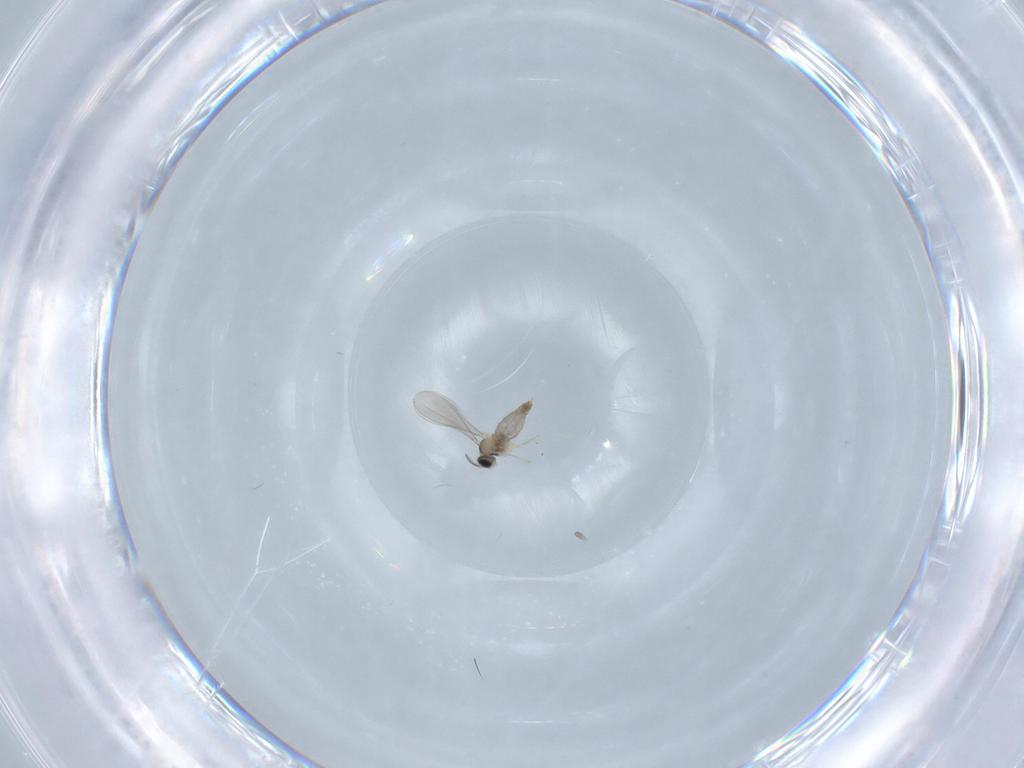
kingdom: Animalia
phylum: Arthropoda
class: Insecta
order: Diptera
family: Cecidomyiidae
